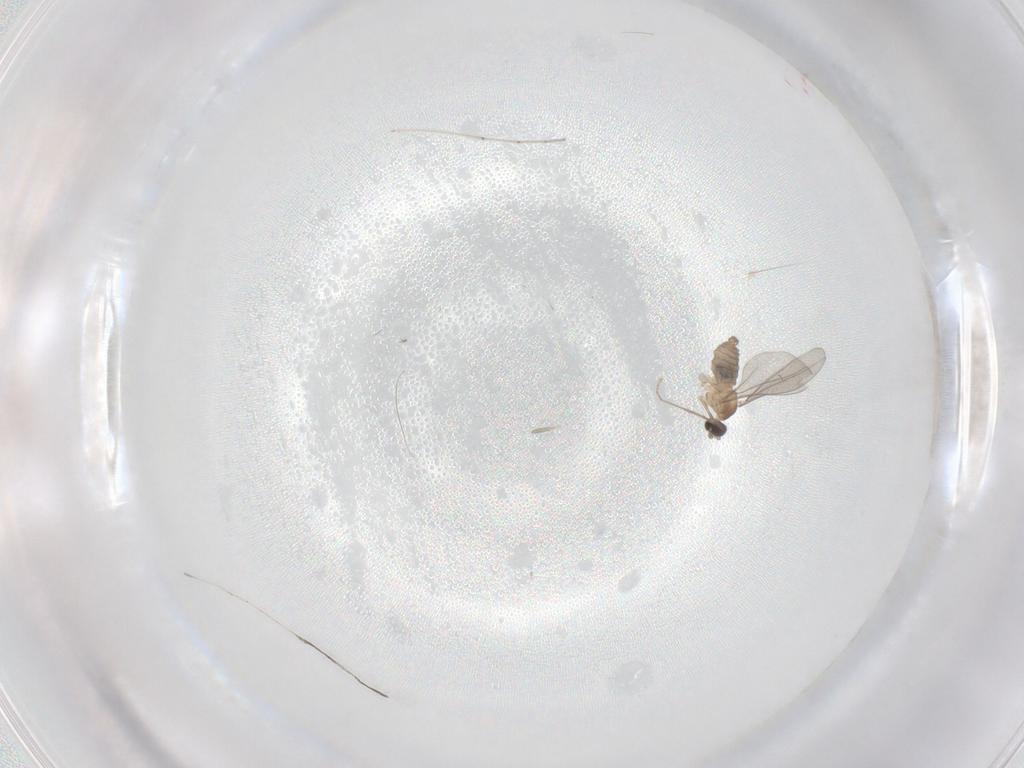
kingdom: Animalia
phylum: Arthropoda
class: Insecta
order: Diptera
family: Cecidomyiidae
